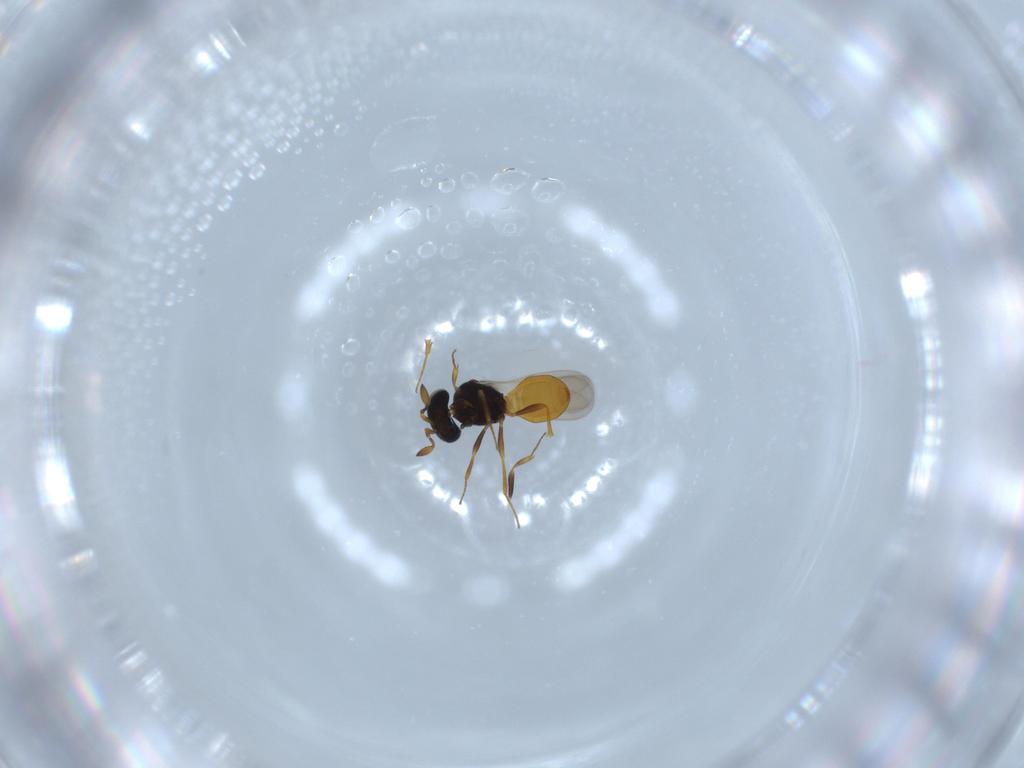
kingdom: Animalia
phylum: Arthropoda
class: Insecta
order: Hymenoptera
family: Scelionidae
